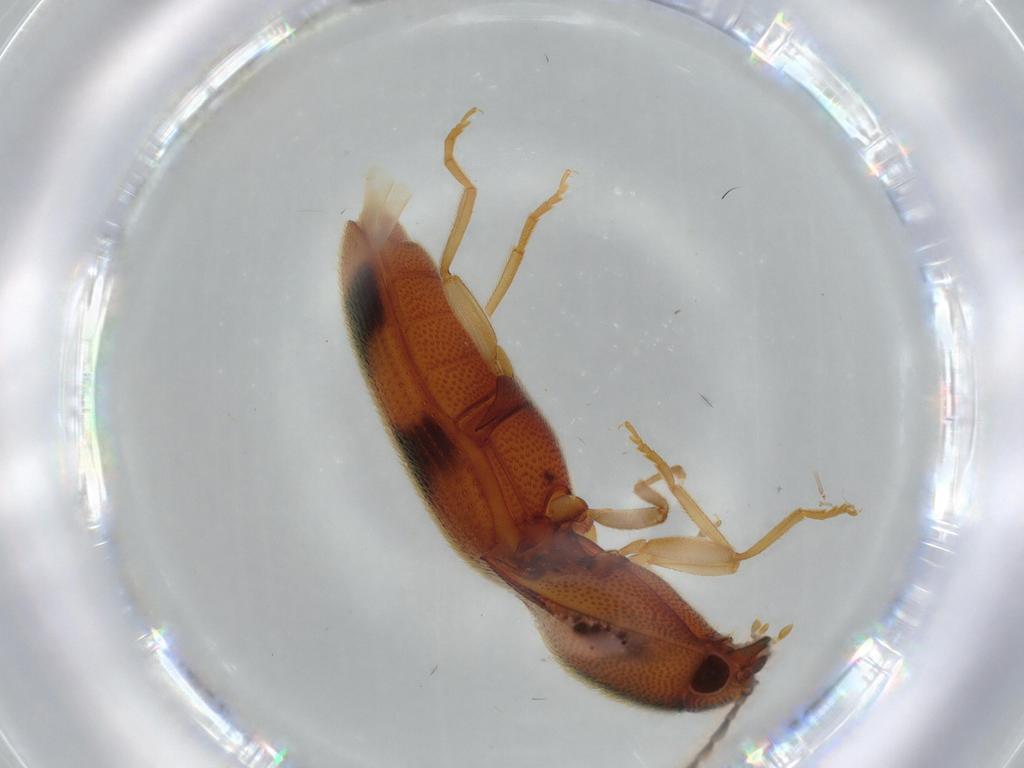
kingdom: Animalia
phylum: Arthropoda
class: Insecta
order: Coleoptera
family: Elateridae
